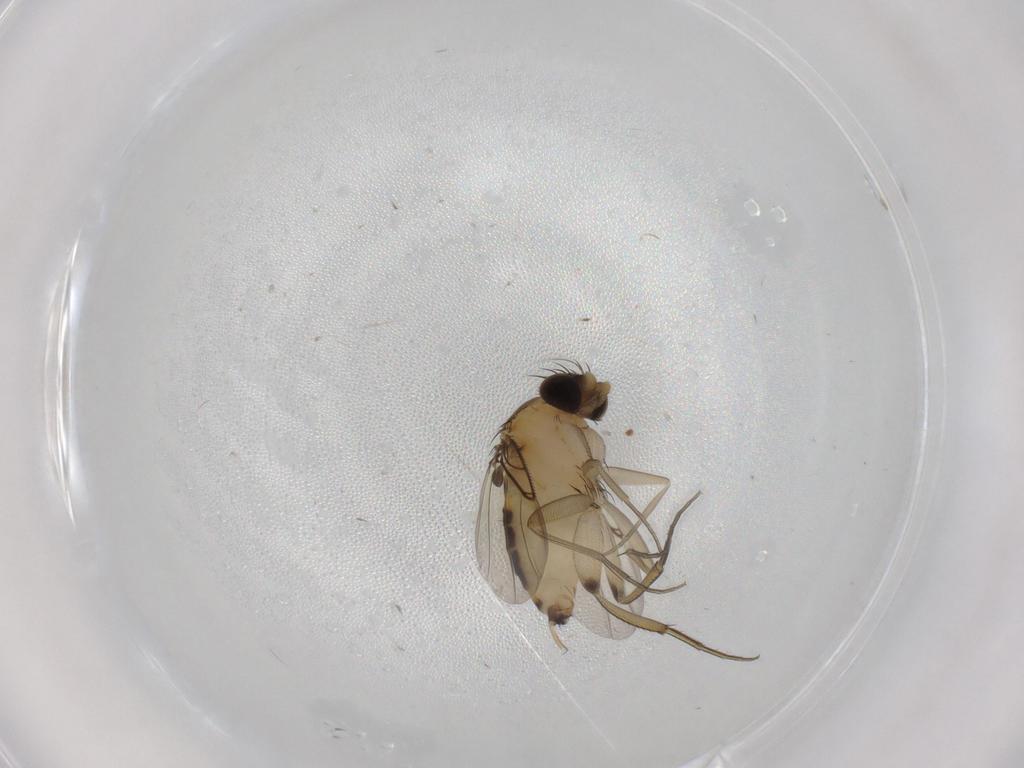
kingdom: Animalia
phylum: Arthropoda
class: Insecta
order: Diptera
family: Phoridae
